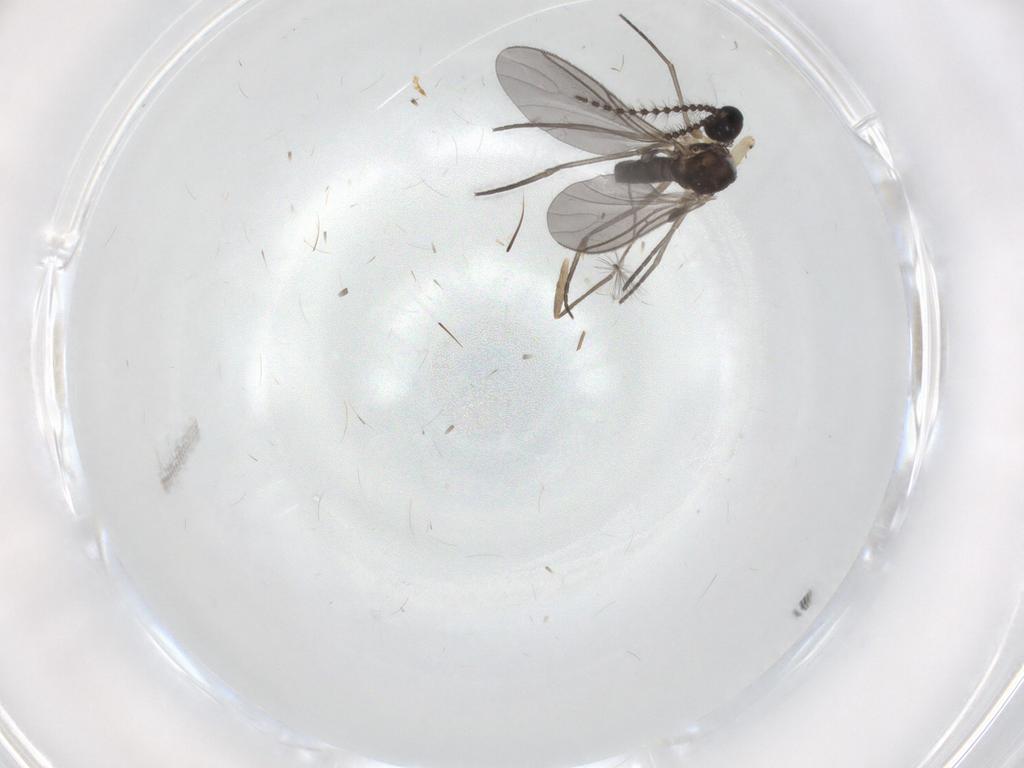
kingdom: Animalia
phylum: Arthropoda
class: Insecta
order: Diptera
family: Sciaridae
